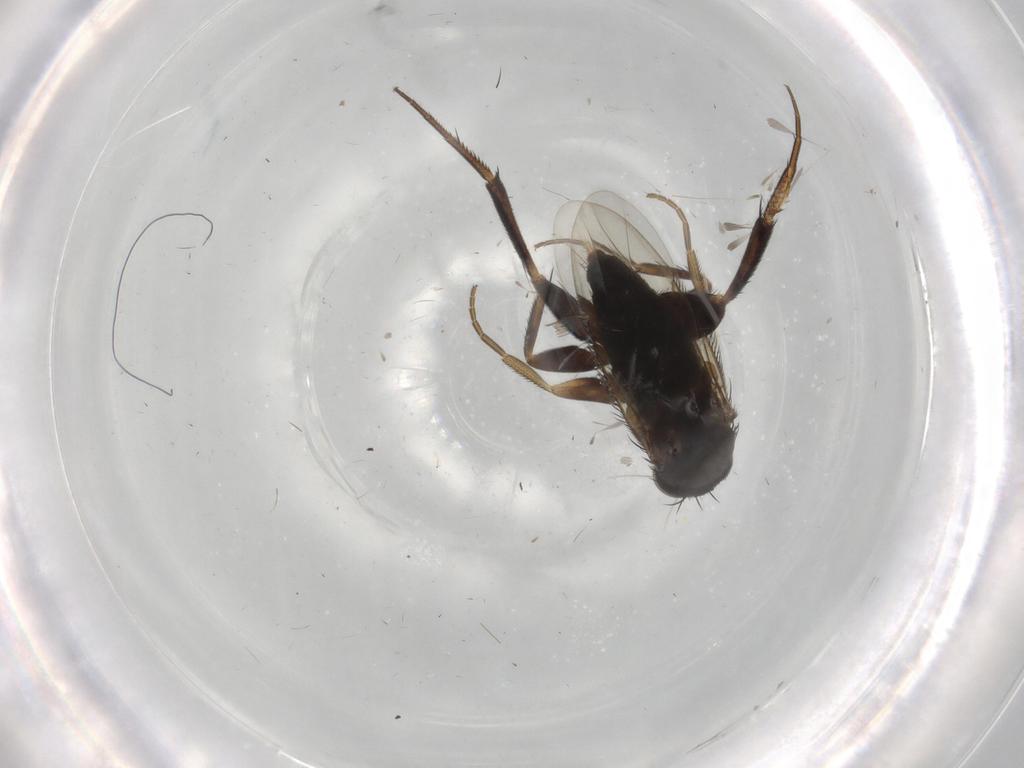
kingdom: Animalia
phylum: Arthropoda
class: Insecta
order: Diptera
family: Phoridae
